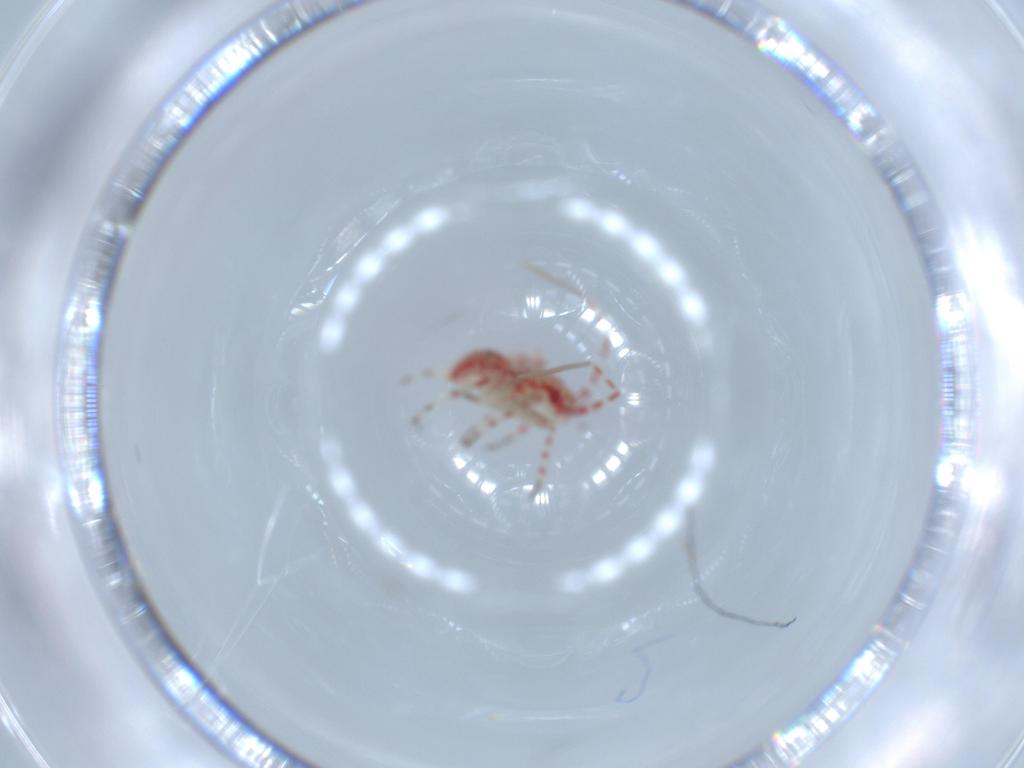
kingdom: Animalia
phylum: Arthropoda
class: Insecta
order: Hemiptera
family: Miridae
